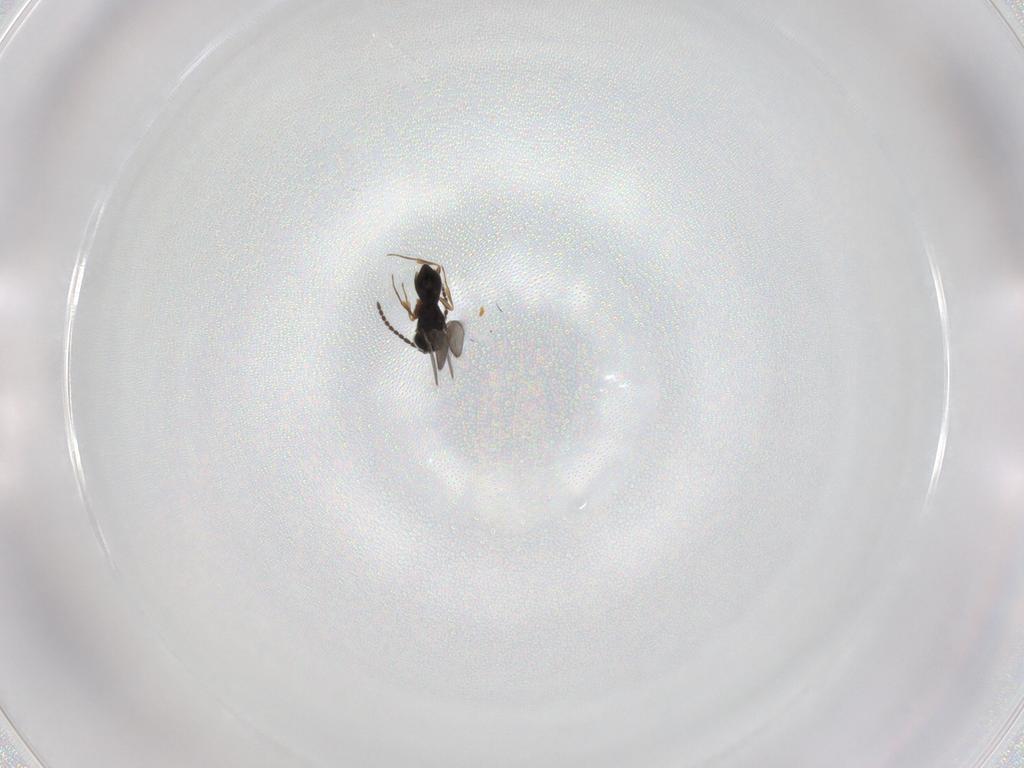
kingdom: Animalia
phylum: Arthropoda
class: Insecta
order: Hymenoptera
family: Scelionidae
